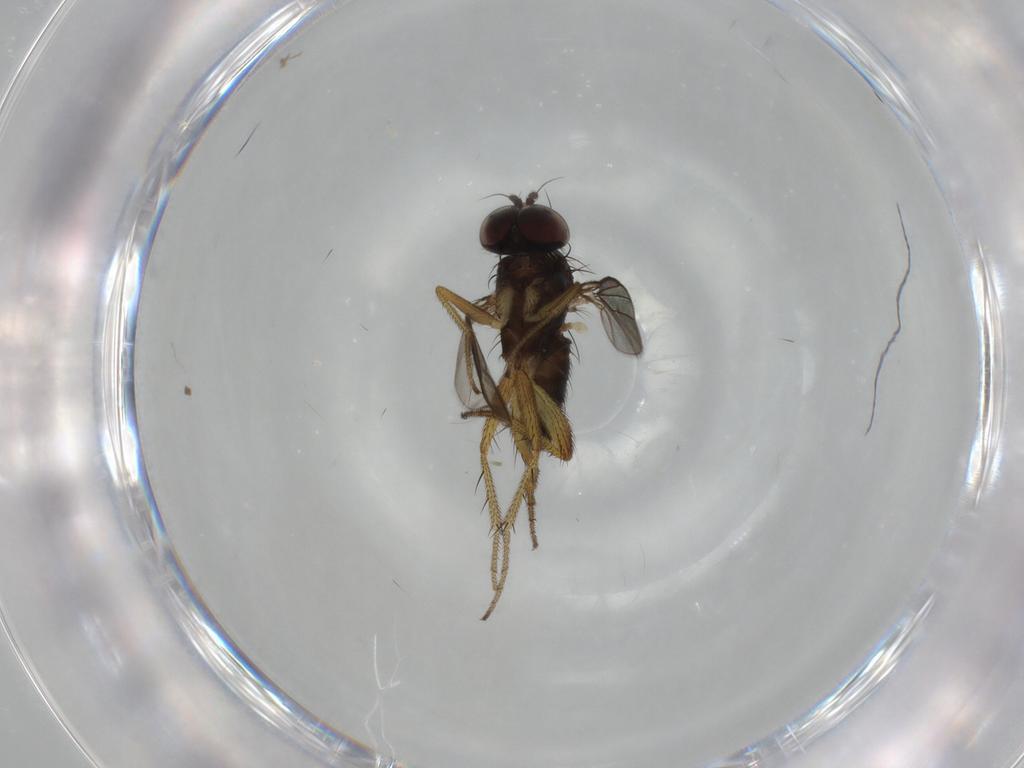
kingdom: Animalia
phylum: Arthropoda
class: Insecta
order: Diptera
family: Dolichopodidae
